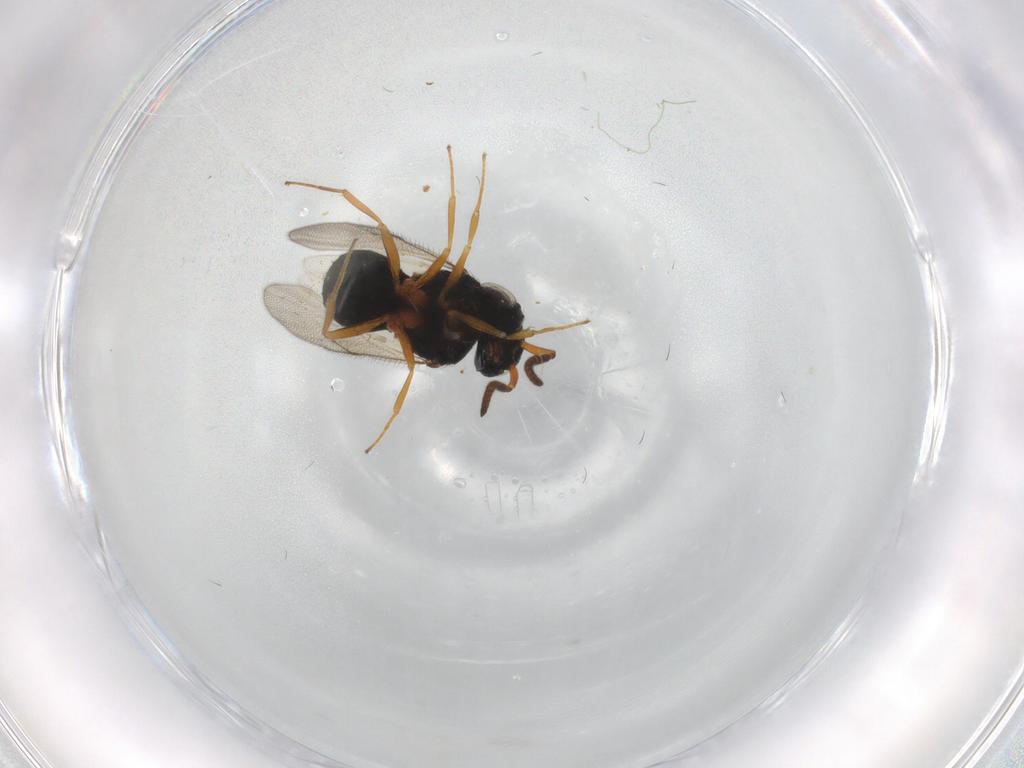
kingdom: Animalia
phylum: Arthropoda
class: Insecta
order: Hymenoptera
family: Scelionidae
